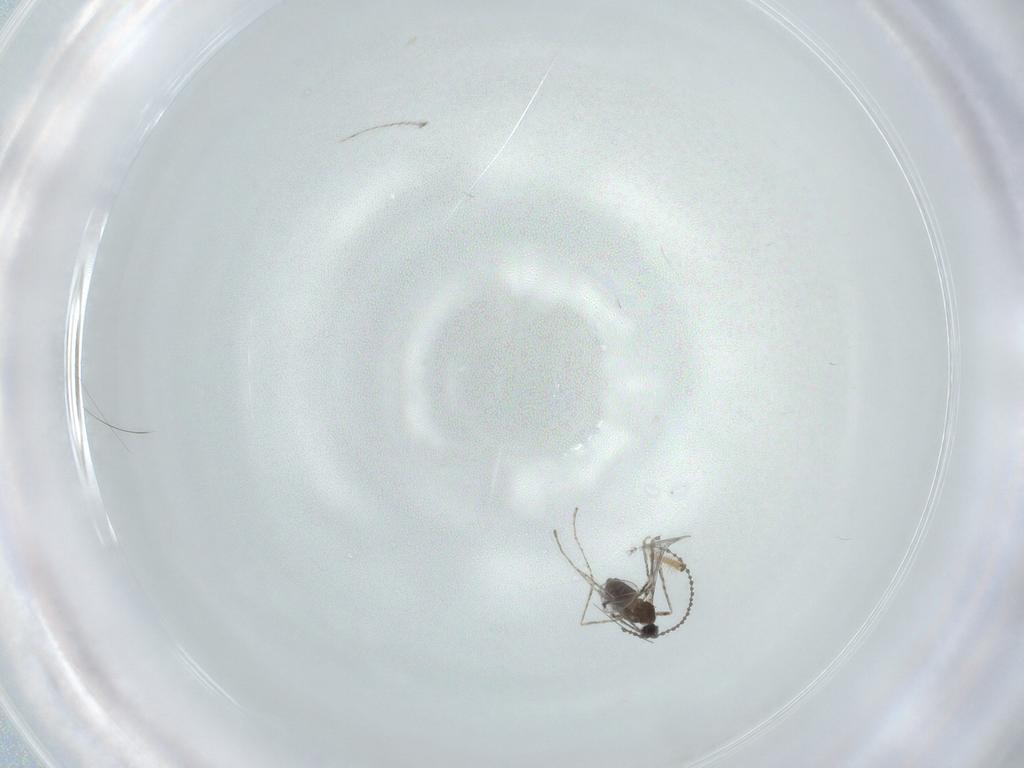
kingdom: Animalia
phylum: Arthropoda
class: Insecta
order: Diptera
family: Cecidomyiidae
